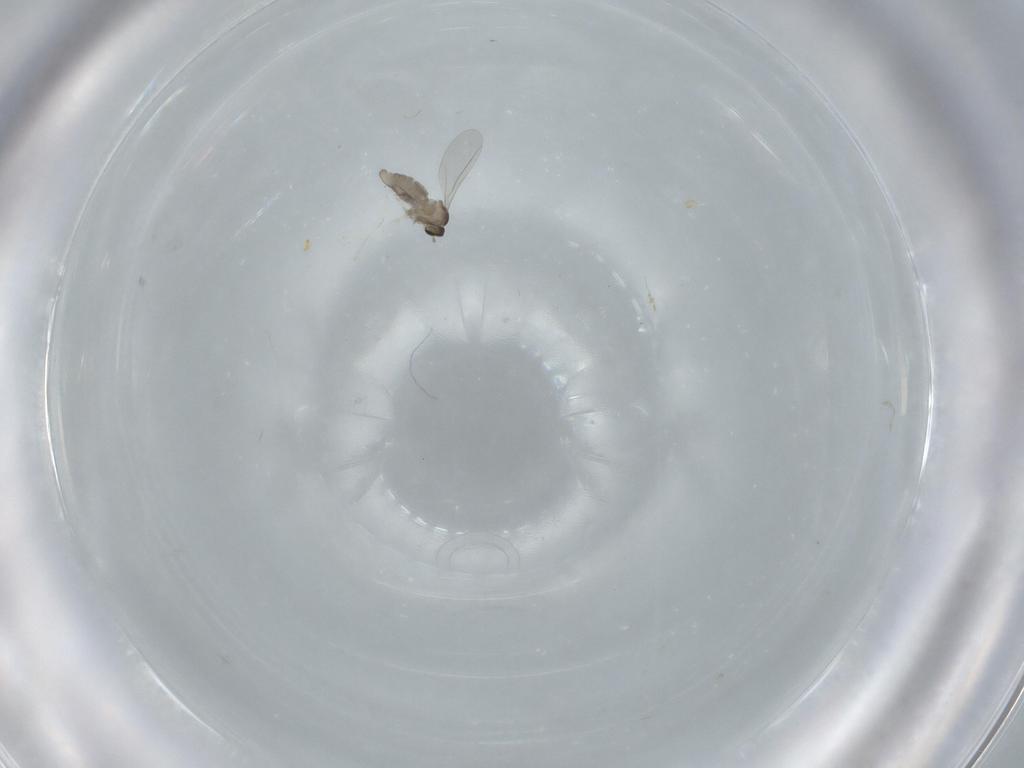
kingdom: Animalia
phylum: Arthropoda
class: Insecta
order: Diptera
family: Cecidomyiidae
